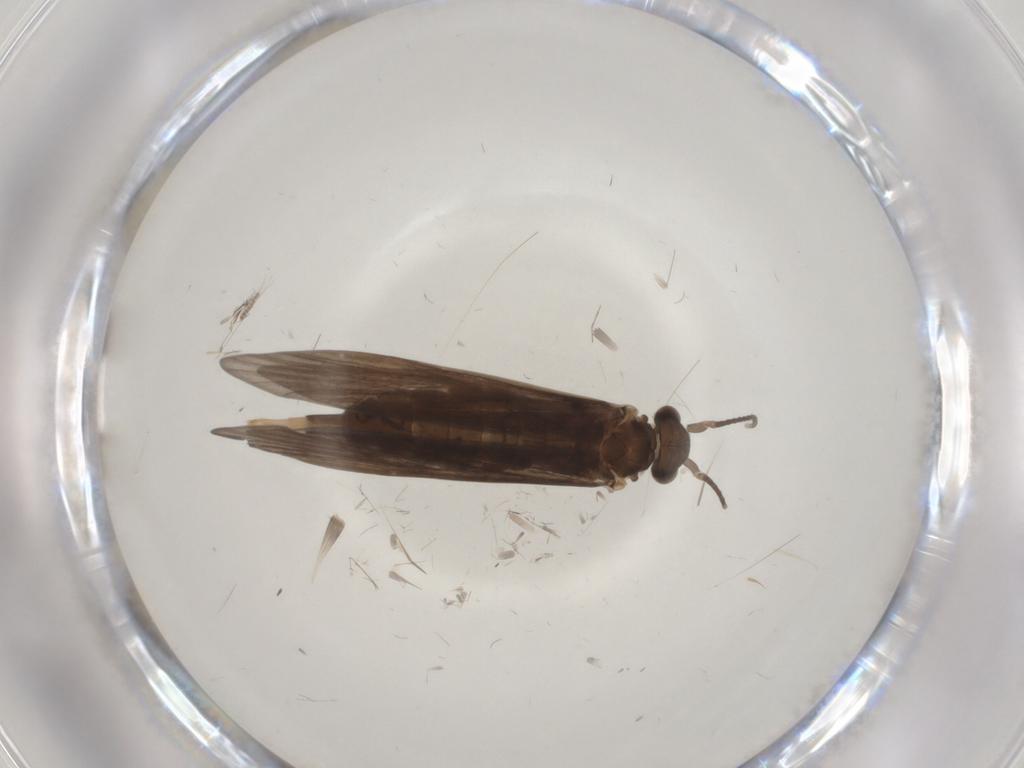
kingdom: Animalia
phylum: Arthropoda
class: Insecta
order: Trichoptera
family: Xiphocentronidae
